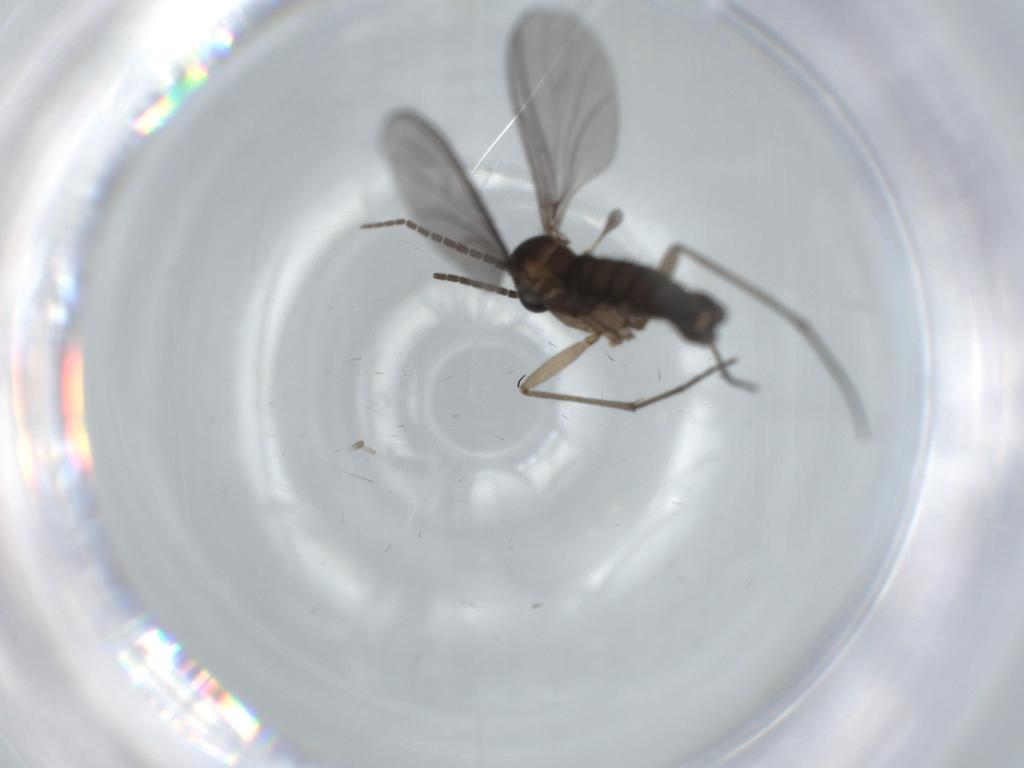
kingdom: Animalia
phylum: Arthropoda
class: Insecta
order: Diptera
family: Sciaridae
